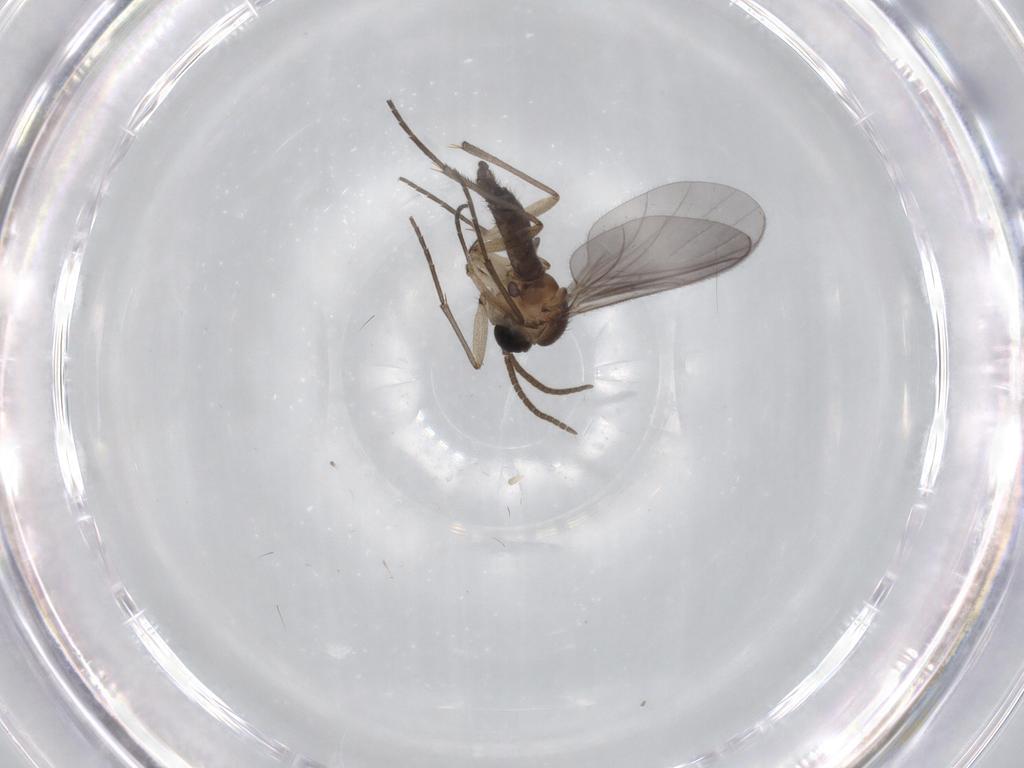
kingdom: Animalia
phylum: Arthropoda
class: Insecta
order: Diptera
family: Sciaridae
